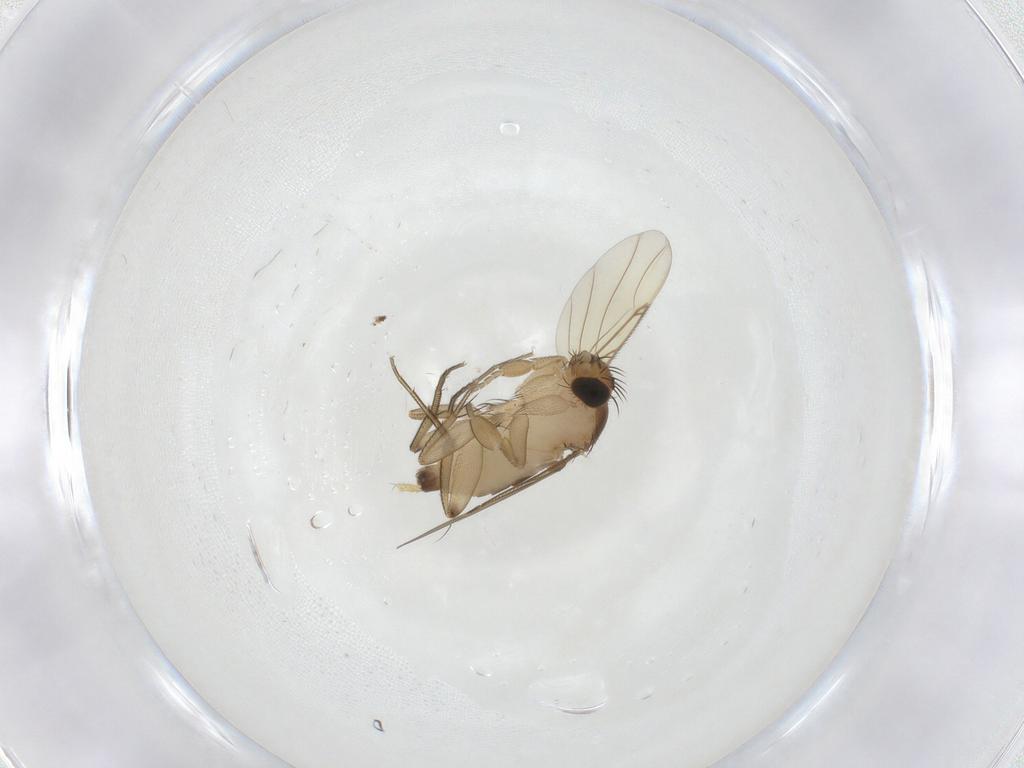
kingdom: Animalia
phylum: Arthropoda
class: Insecta
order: Diptera
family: Phoridae
